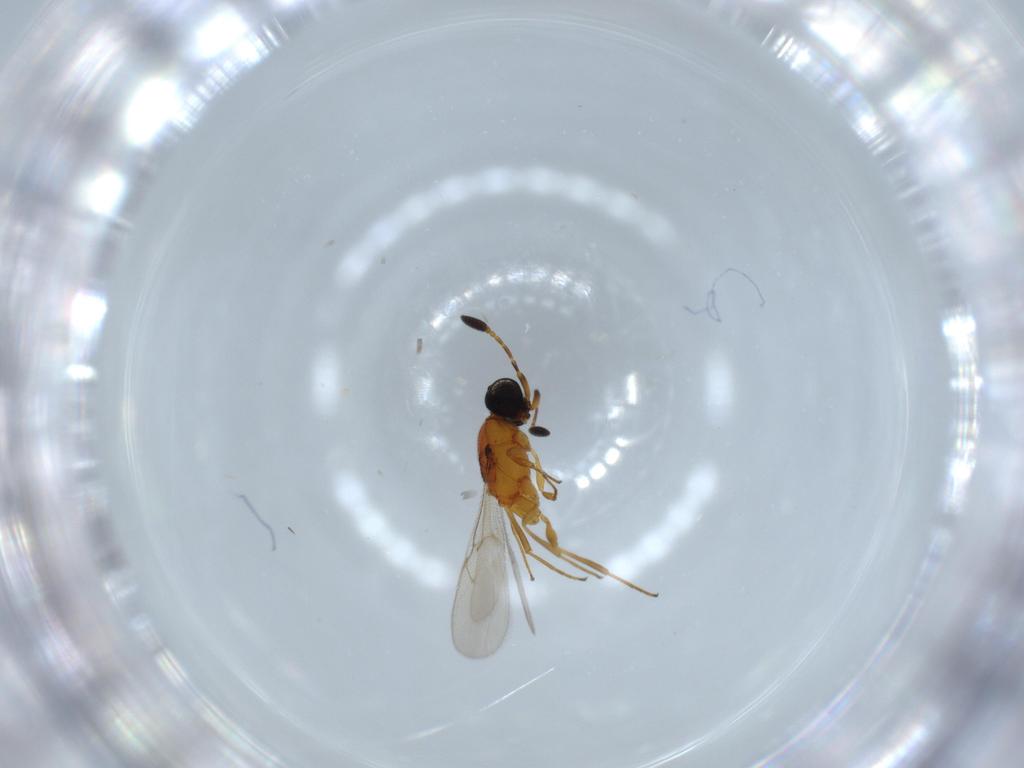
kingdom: Animalia
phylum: Arthropoda
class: Insecta
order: Hymenoptera
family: Scelionidae
